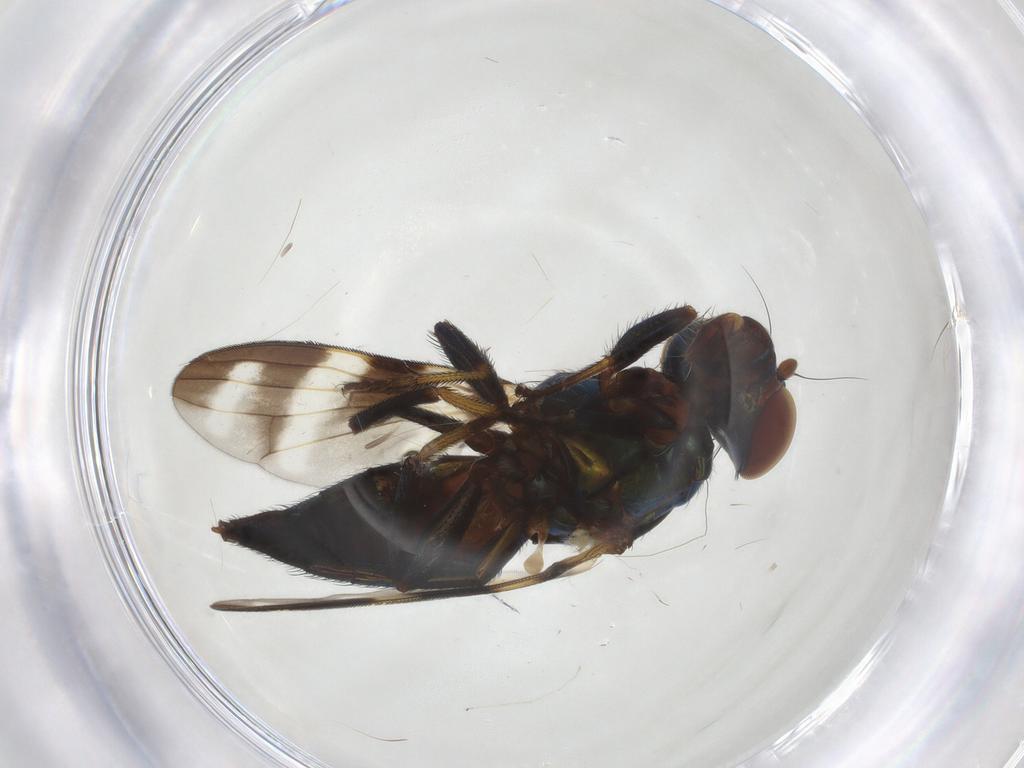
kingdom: Animalia
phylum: Arthropoda
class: Insecta
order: Diptera
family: Ulidiidae
